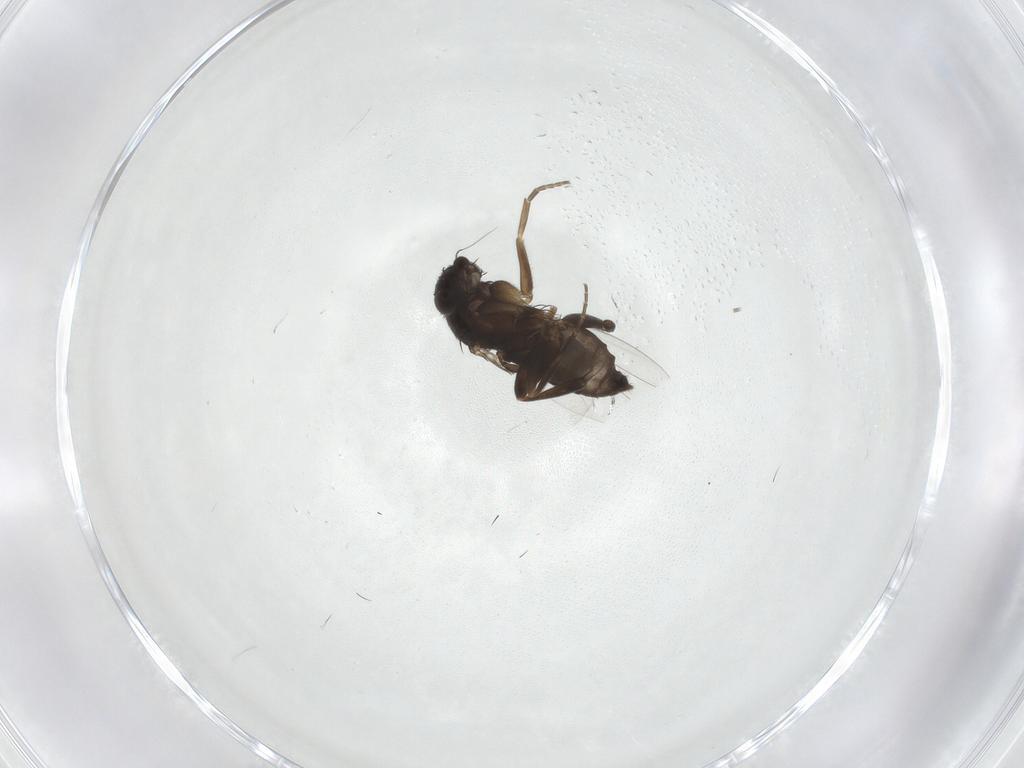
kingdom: Animalia
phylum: Arthropoda
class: Insecta
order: Diptera
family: Phoridae
